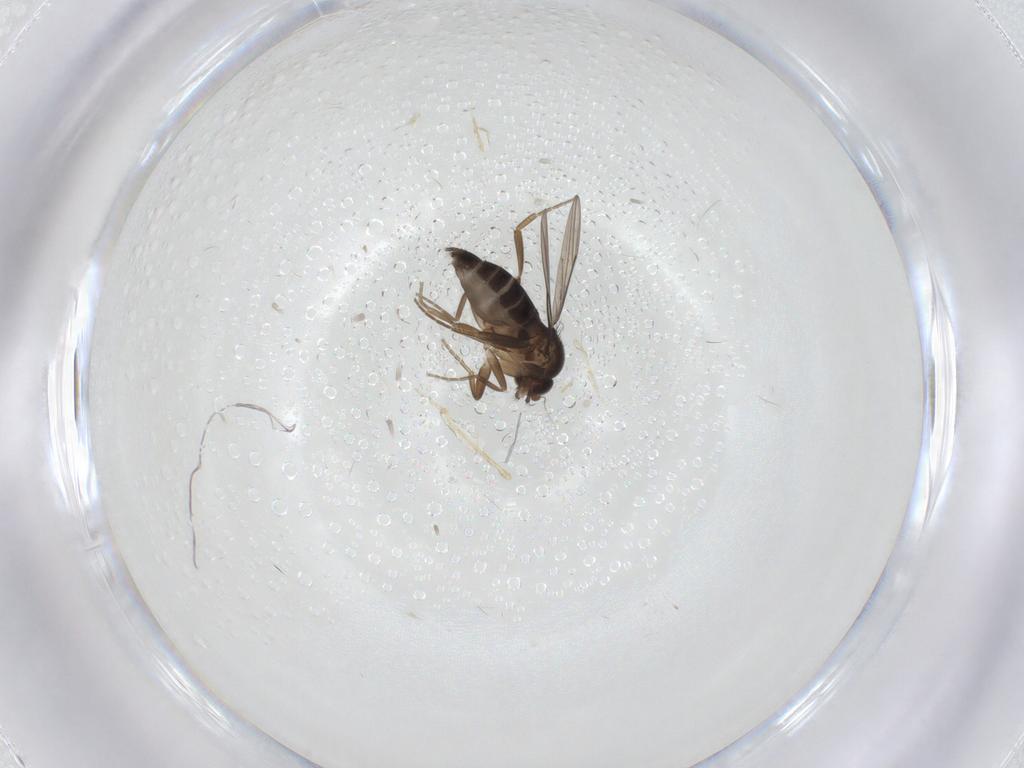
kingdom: Animalia
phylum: Arthropoda
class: Insecta
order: Diptera
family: Phoridae
